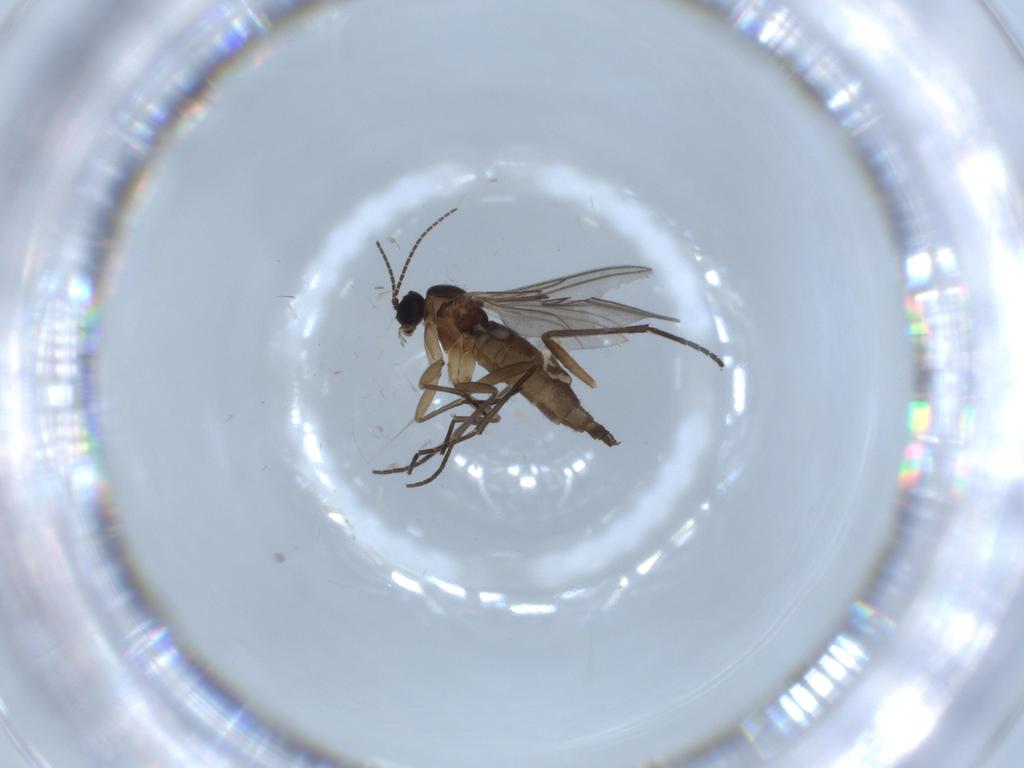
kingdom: Animalia
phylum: Arthropoda
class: Insecta
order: Diptera
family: Sciaridae
